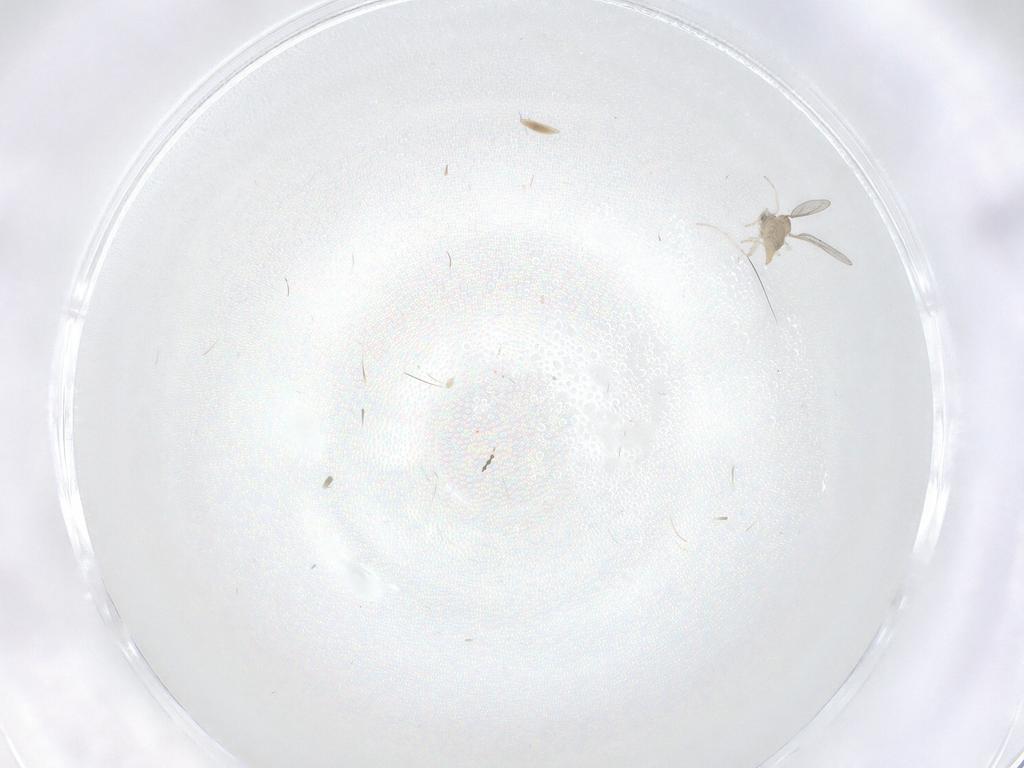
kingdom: Animalia
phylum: Arthropoda
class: Insecta
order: Diptera
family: Cecidomyiidae
